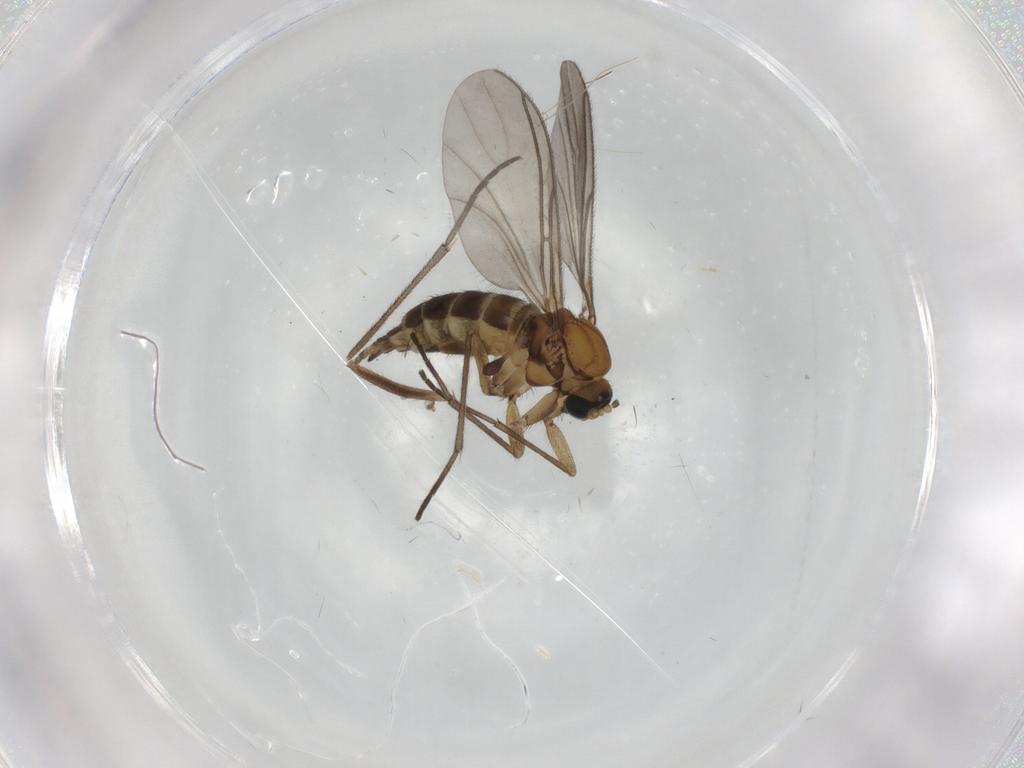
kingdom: Animalia
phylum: Arthropoda
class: Insecta
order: Diptera
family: Sciaridae
